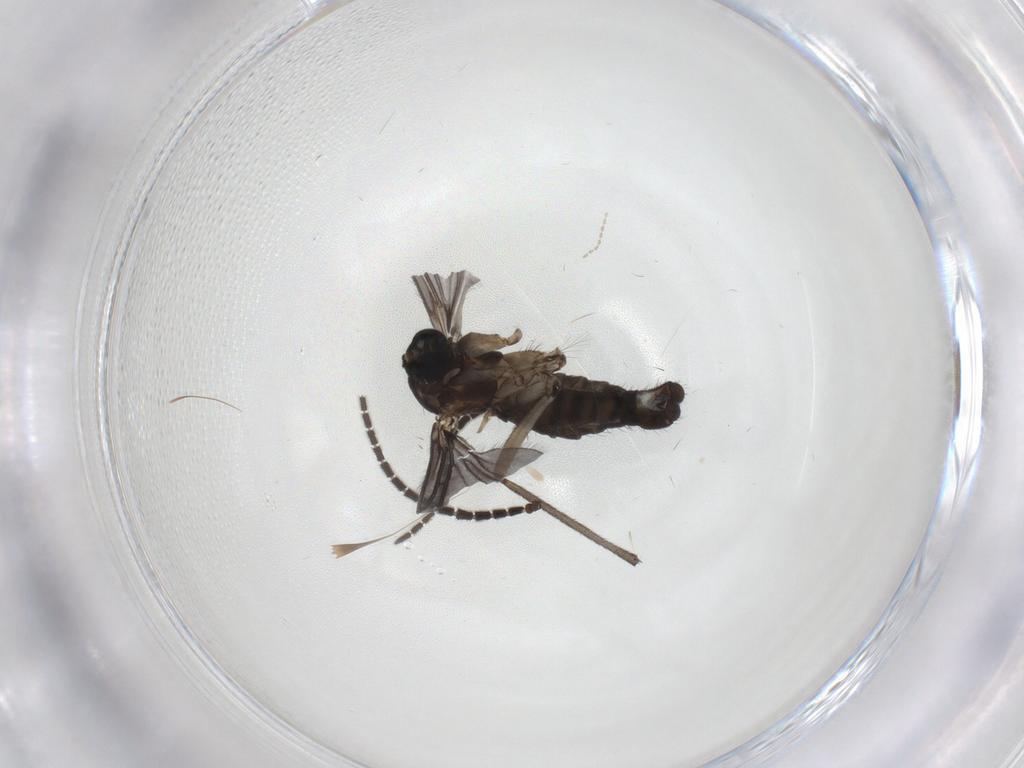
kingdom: Animalia
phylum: Arthropoda
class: Insecta
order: Diptera
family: Sciaridae
